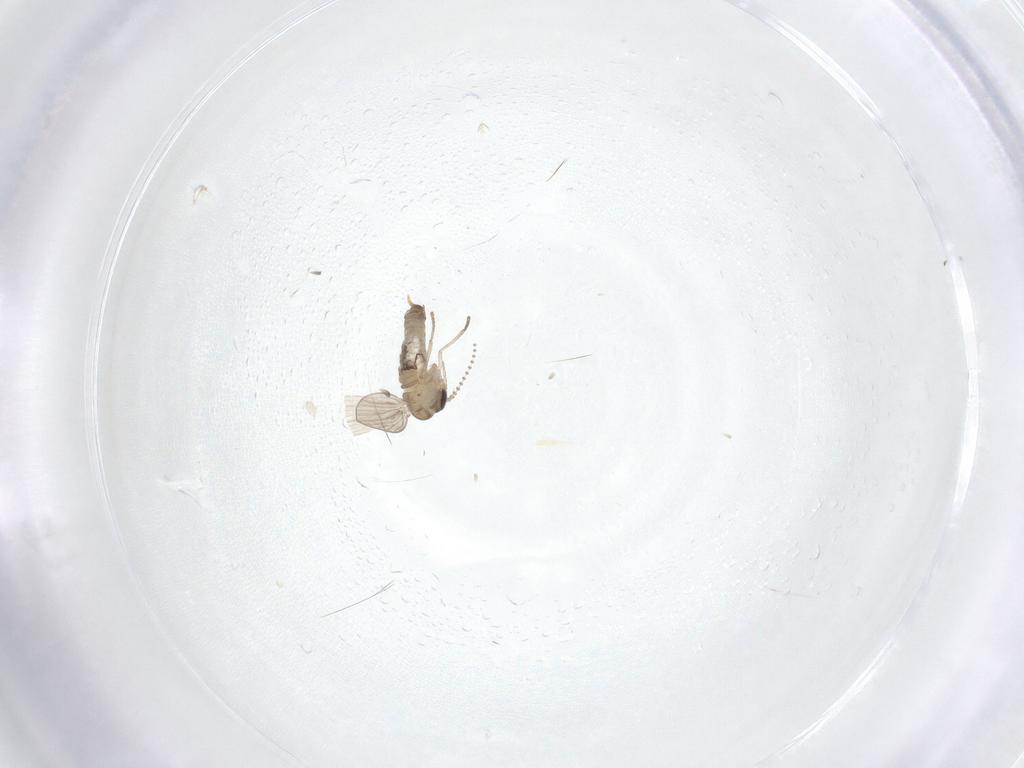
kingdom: Animalia
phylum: Arthropoda
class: Insecta
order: Diptera
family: Psychodidae
